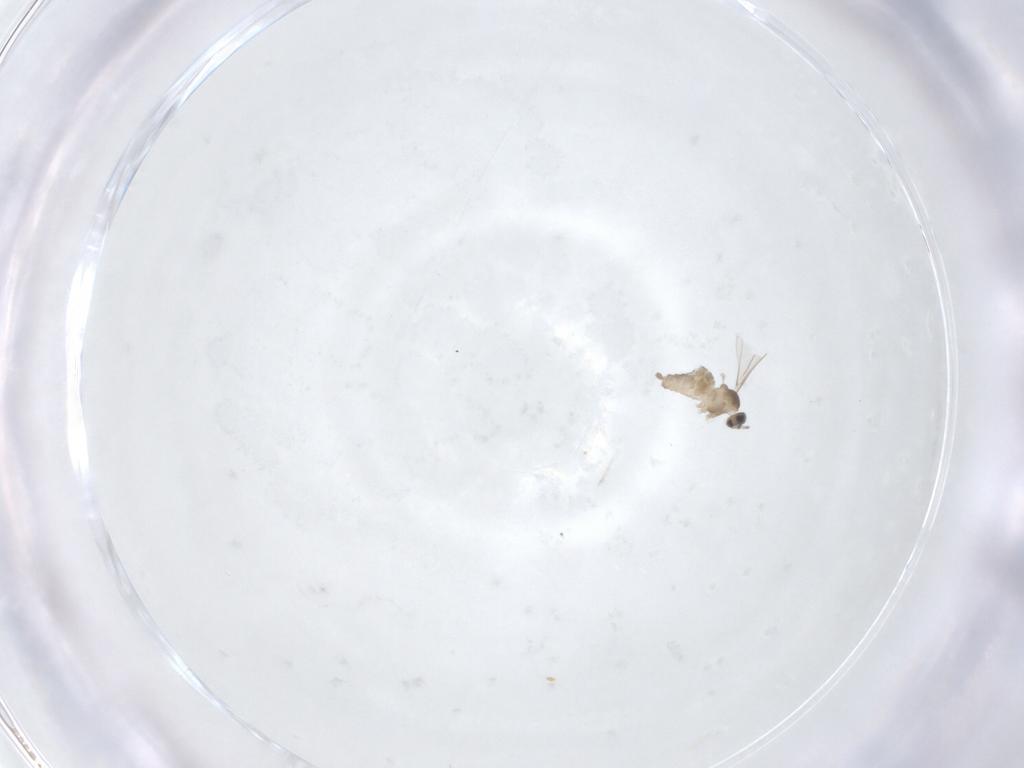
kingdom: Animalia
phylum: Arthropoda
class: Insecta
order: Diptera
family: Cecidomyiidae
